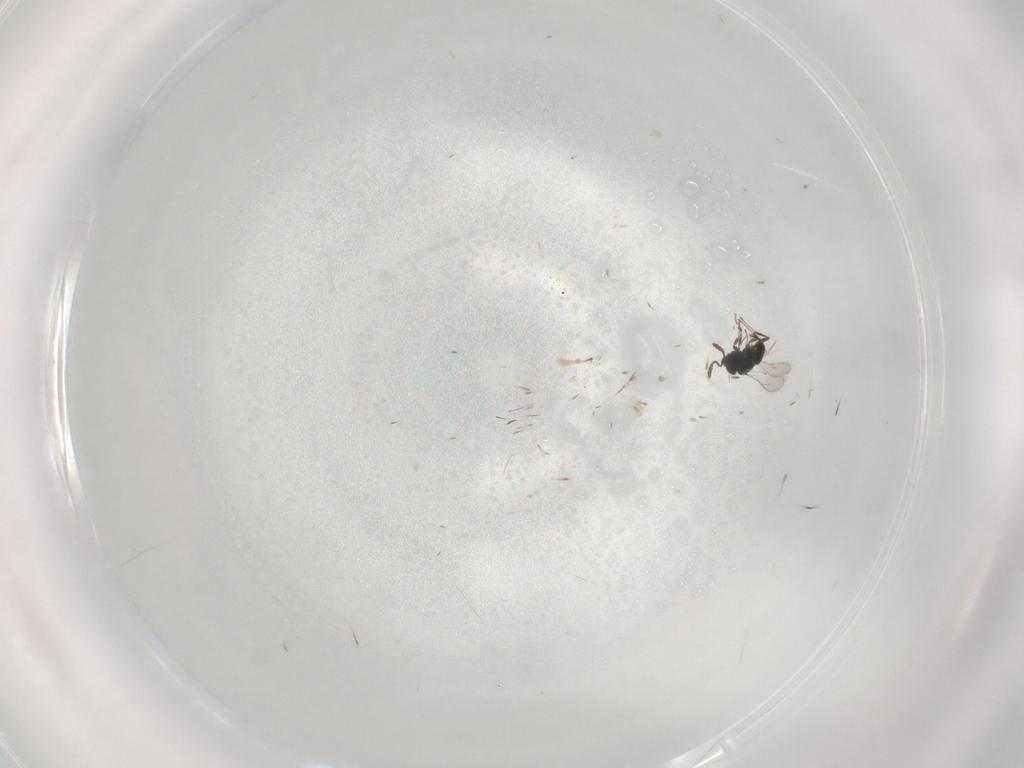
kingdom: Animalia
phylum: Arthropoda
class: Insecta
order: Hymenoptera
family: Scelionidae
